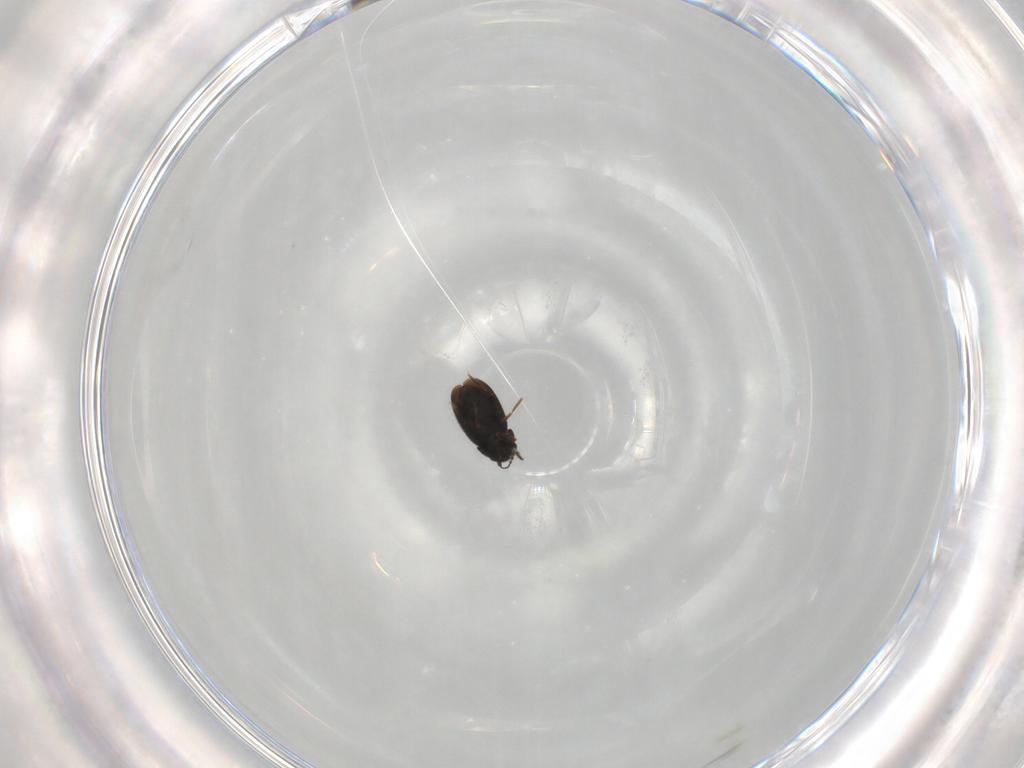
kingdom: Animalia
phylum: Arthropoda
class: Insecta
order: Coleoptera
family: Ptiliidae
